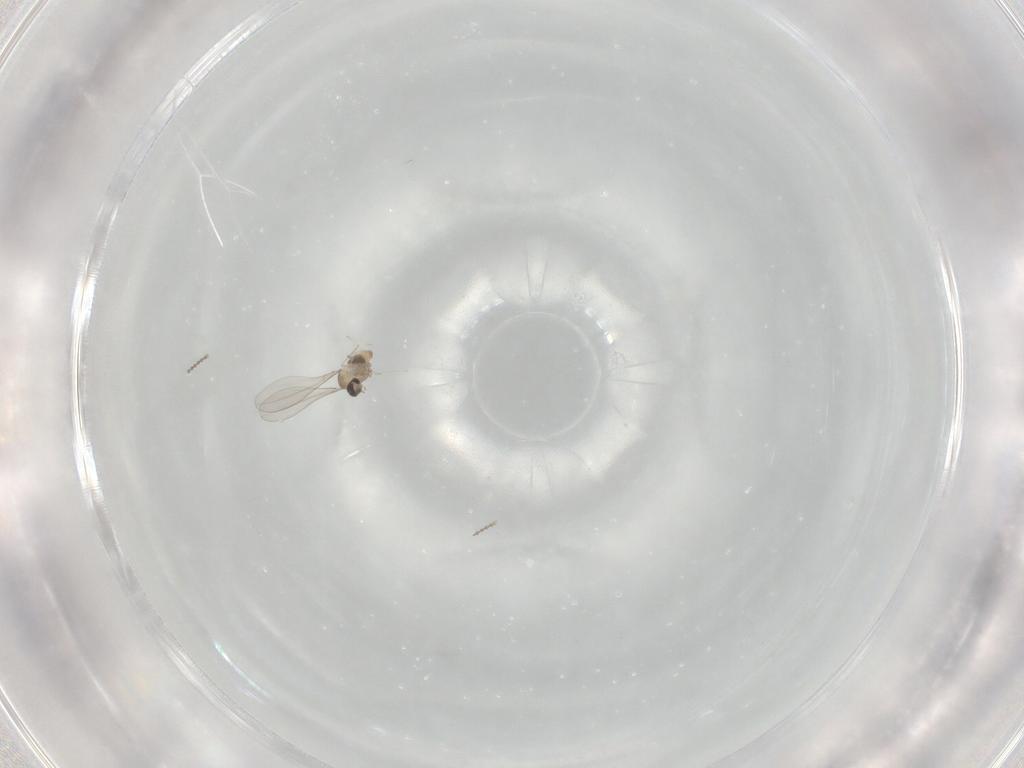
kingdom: Animalia
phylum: Arthropoda
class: Insecta
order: Diptera
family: Cecidomyiidae
